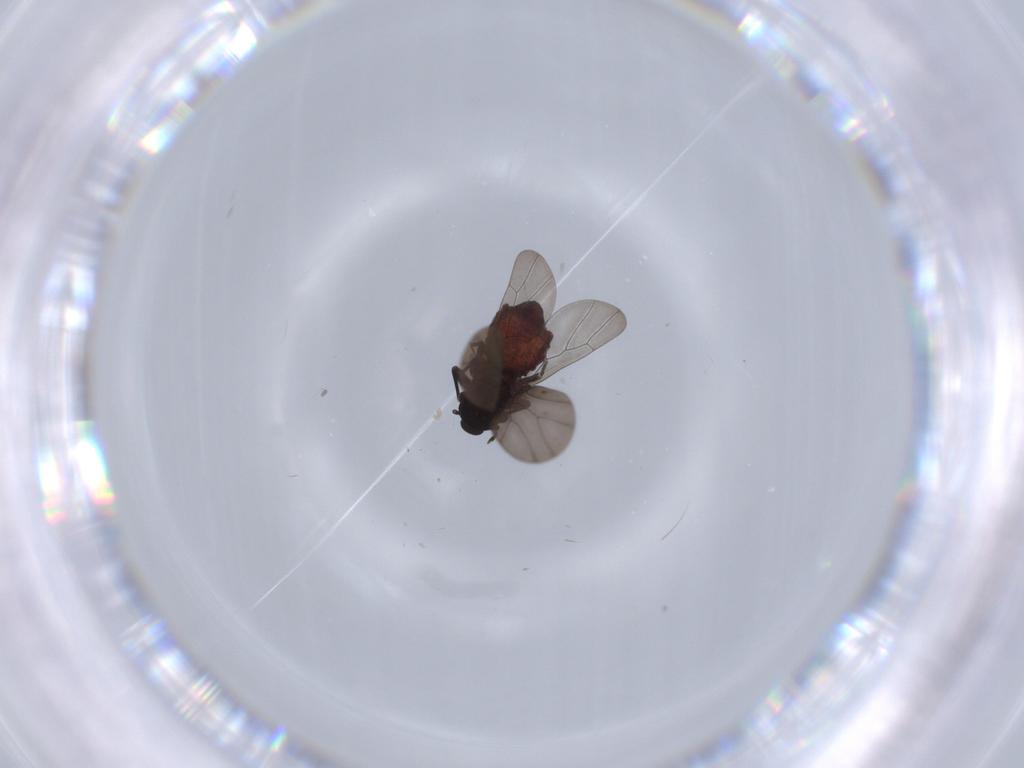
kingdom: Animalia
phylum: Arthropoda
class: Insecta
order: Psocodea
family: Lepidopsocidae
